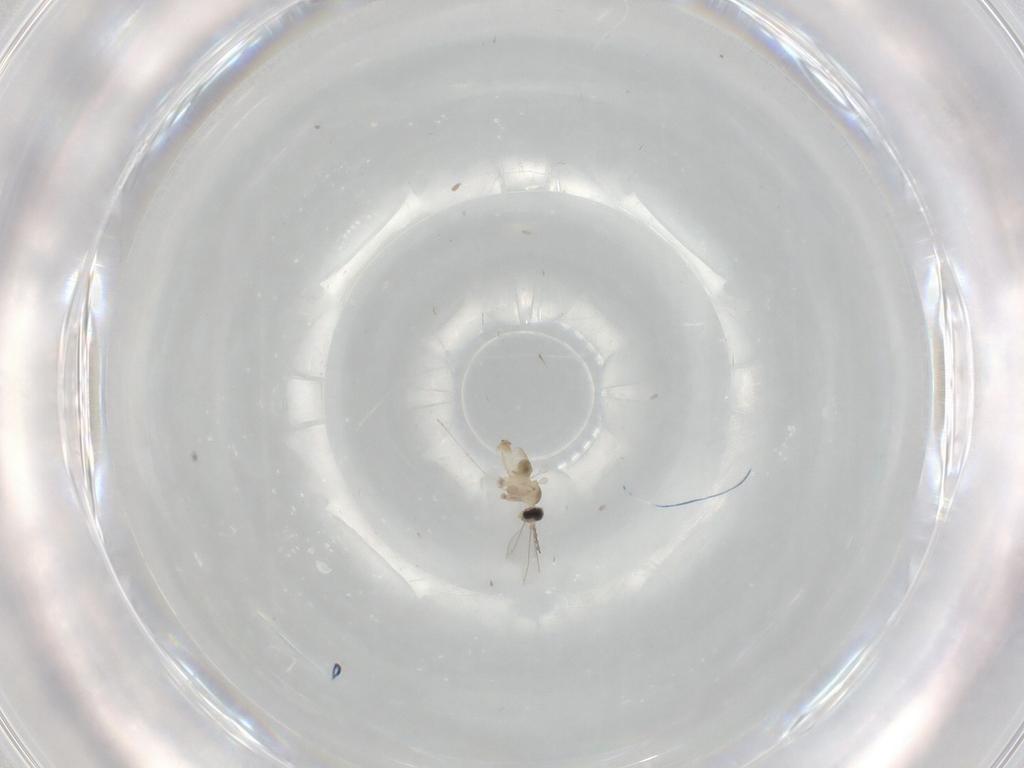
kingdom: Animalia
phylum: Arthropoda
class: Insecta
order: Diptera
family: Cecidomyiidae
